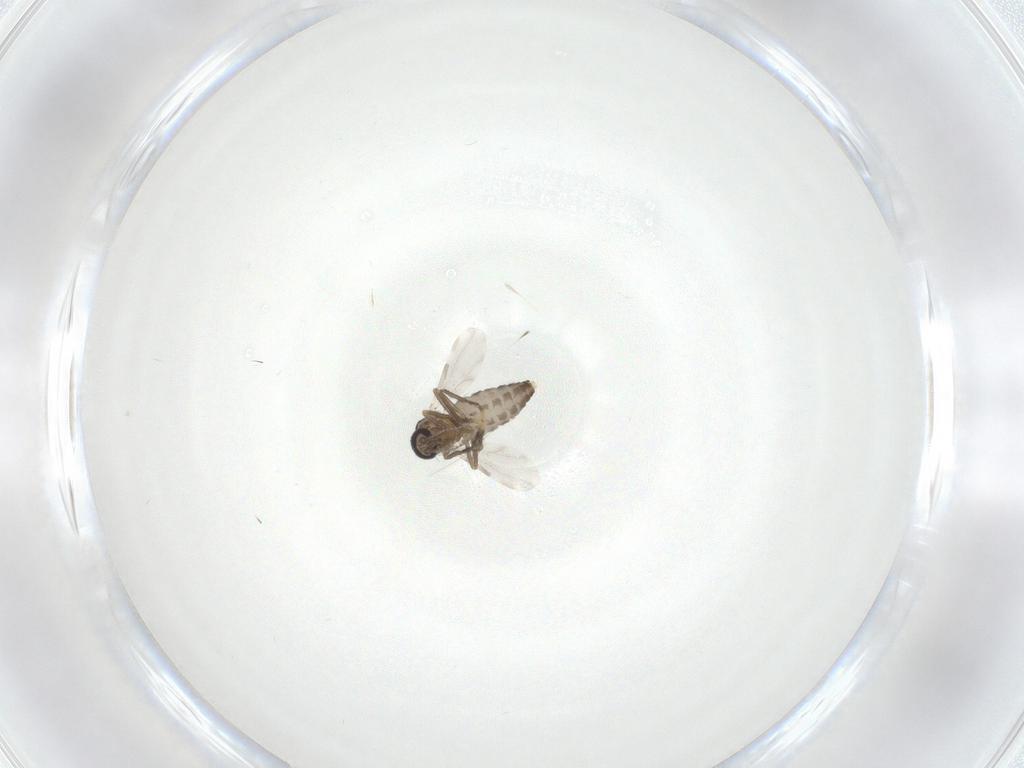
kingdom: Animalia
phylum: Arthropoda
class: Insecta
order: Diptera
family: Ceratopogonidae
